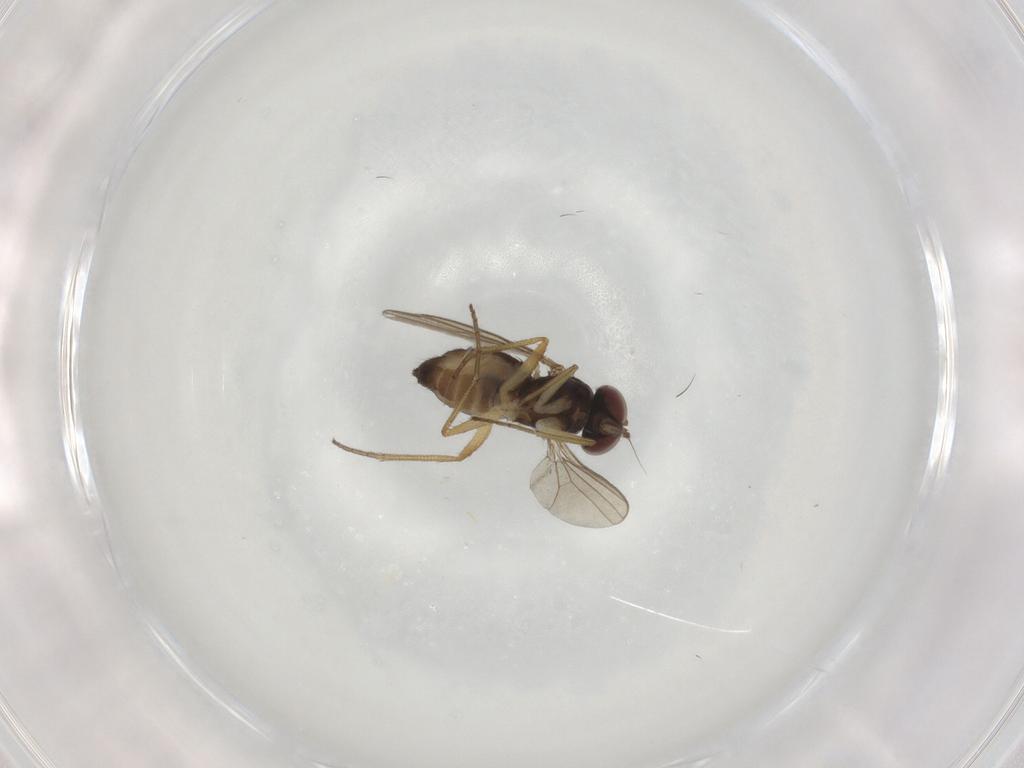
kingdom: Animalia
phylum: Arthropoda
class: Insecta
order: Diptera
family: Dolichopodidae
